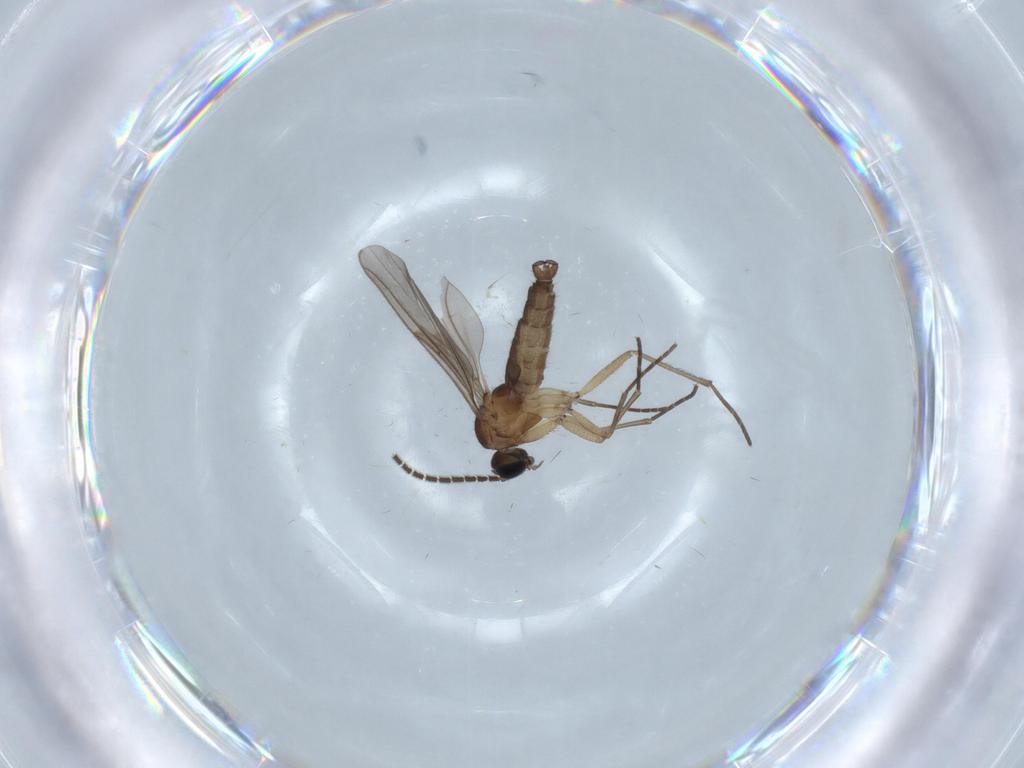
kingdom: Animalia
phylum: Arthropoda
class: Insecta
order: Diptera
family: Sciaridae
